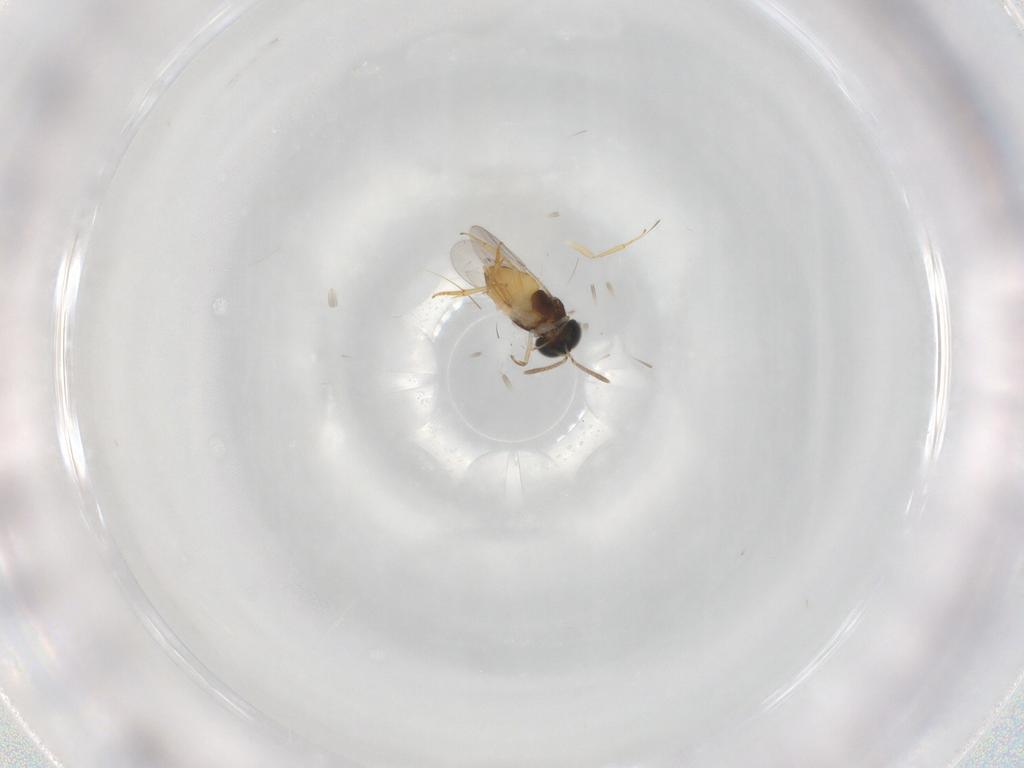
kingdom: Animalia
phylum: Arthropoda
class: Insecta
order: Hymenoptera
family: Encyrtidae
